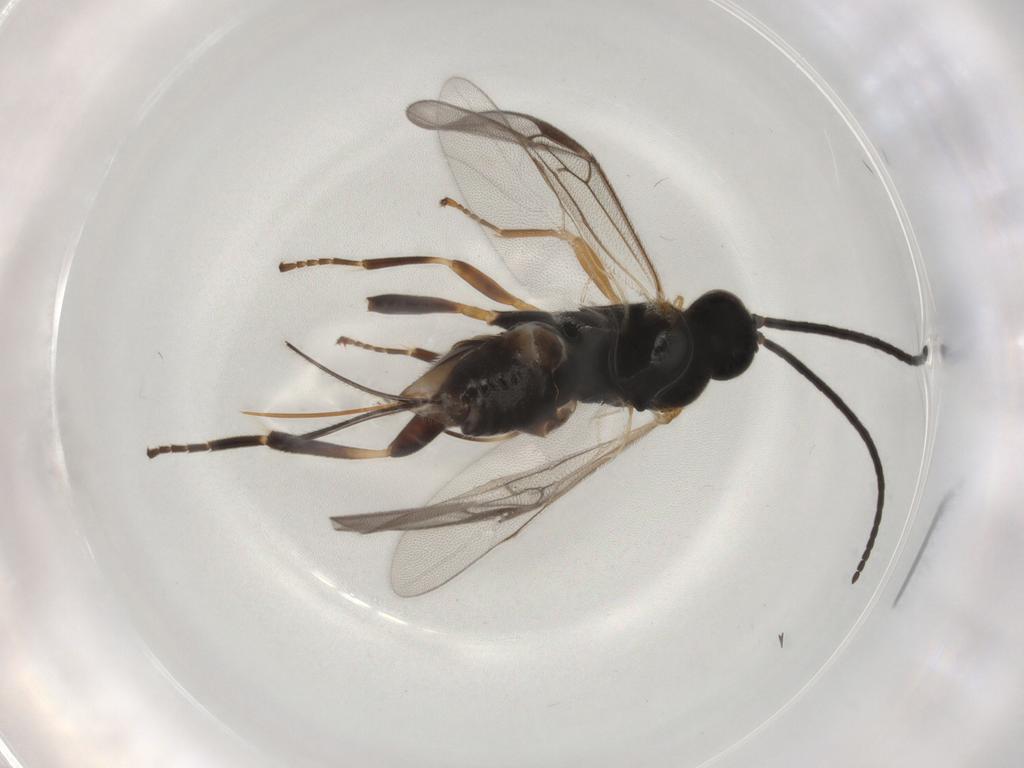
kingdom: Animalia
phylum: Arthropoda
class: Insecta
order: Hymenoptera
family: Braconidae
